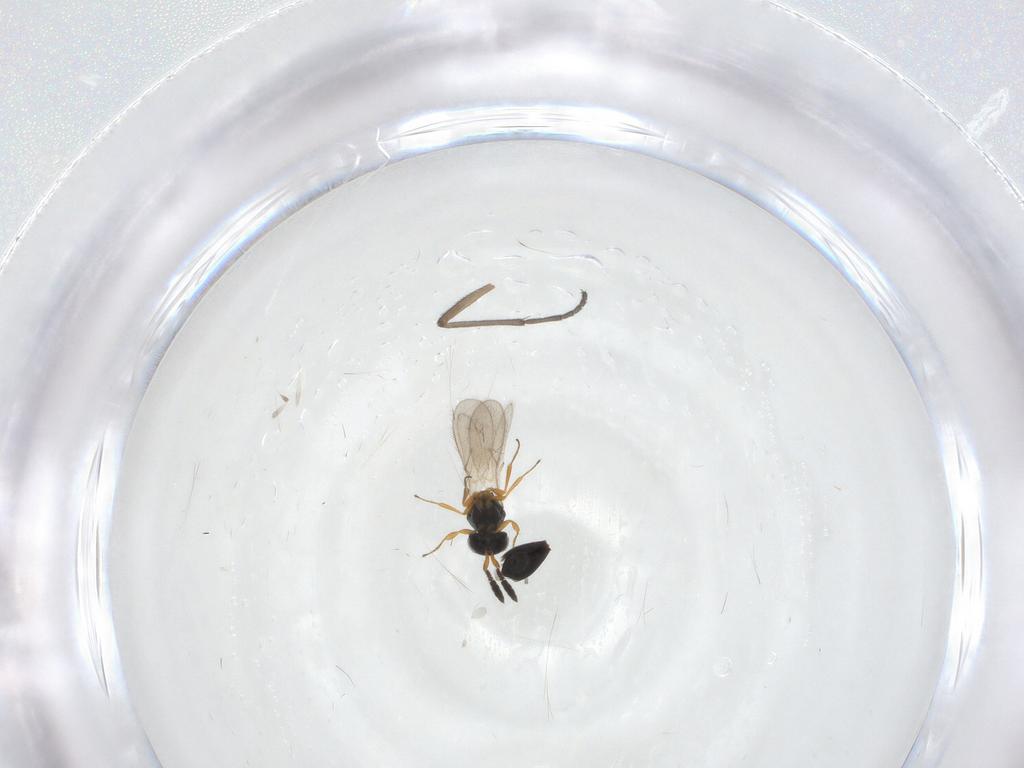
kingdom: Animalia
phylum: Arthropoda
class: Insecta
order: Hymenoptera
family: Scelionidae
